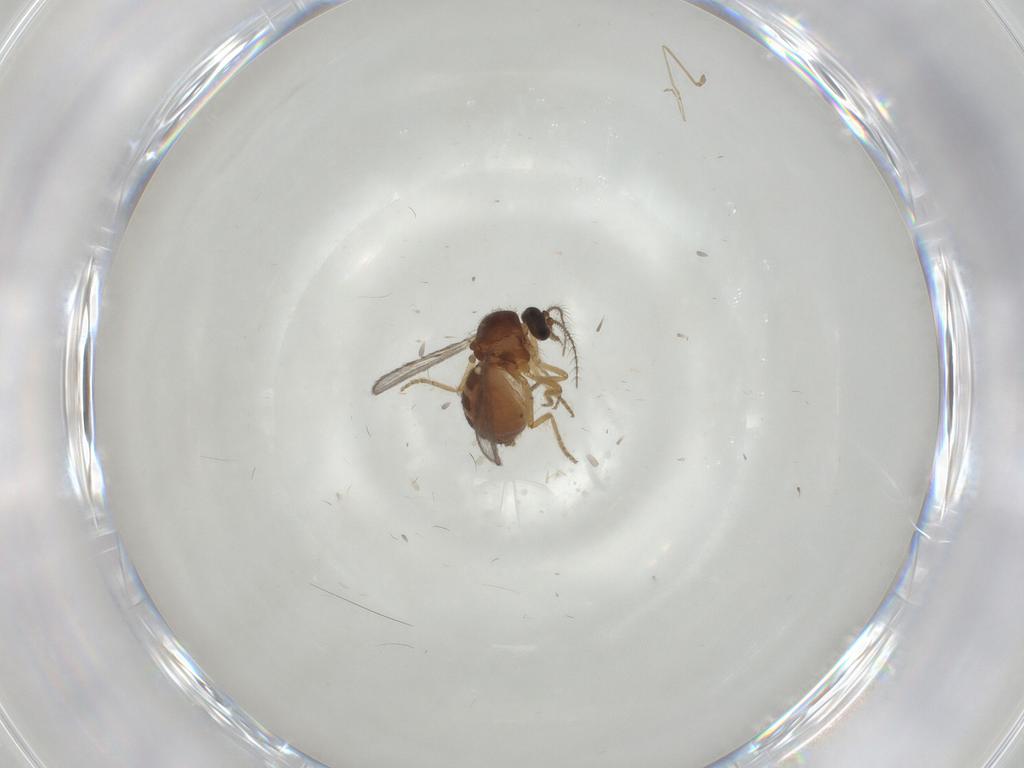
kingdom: Animalia
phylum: Arthropoda
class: Insecta
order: Diptera
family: Ceratopogonidae
